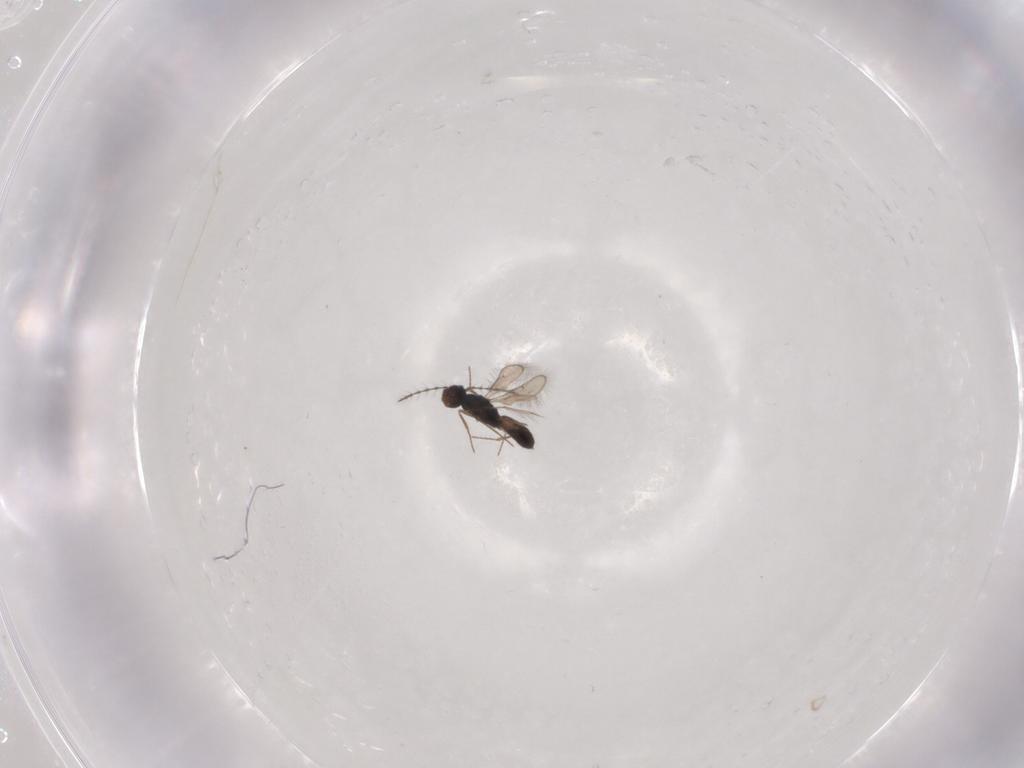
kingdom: Animalia
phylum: Arthropoda
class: Insecta
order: Hymenoptera
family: Pteromalidae
